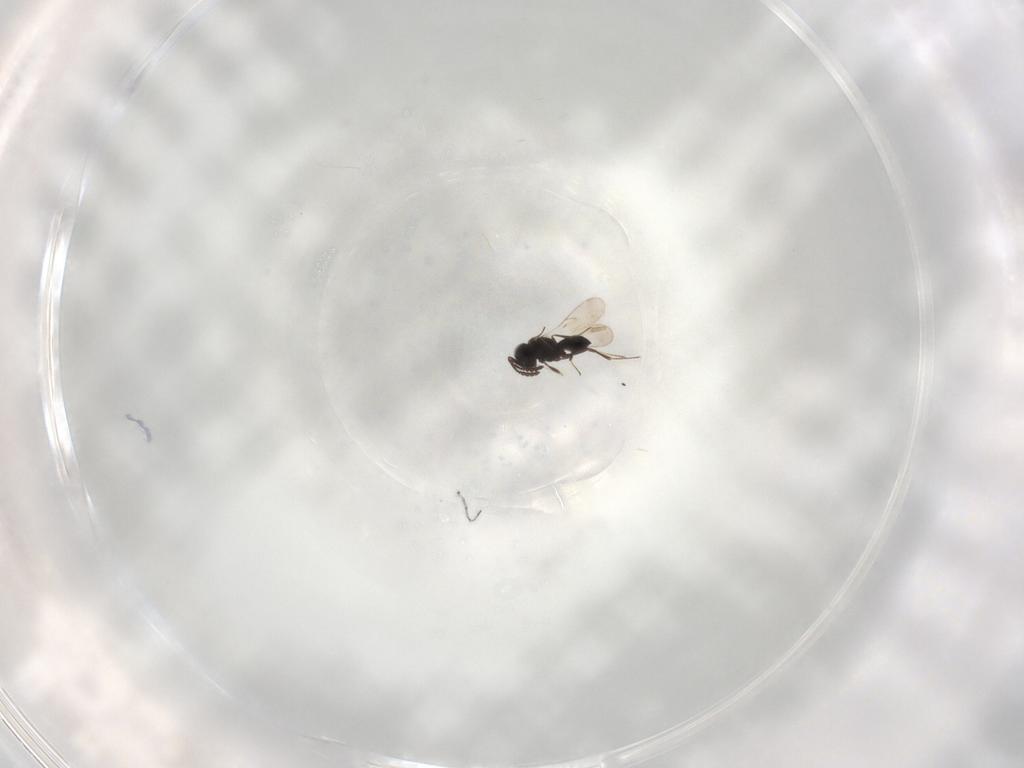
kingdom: Animalia
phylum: Arthropoda
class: Insecta
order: Hymenoptera
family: Scelionidae
